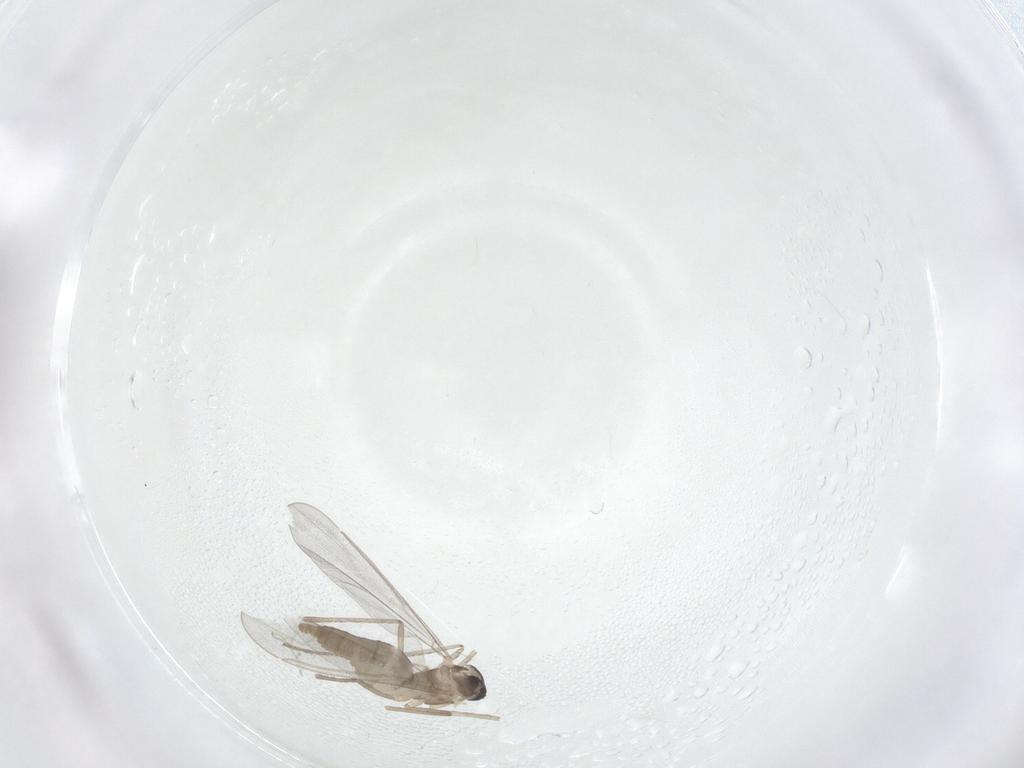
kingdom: Animalia
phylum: Arthropoda
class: Insecta
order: Diptera
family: Cecidomyiidae
